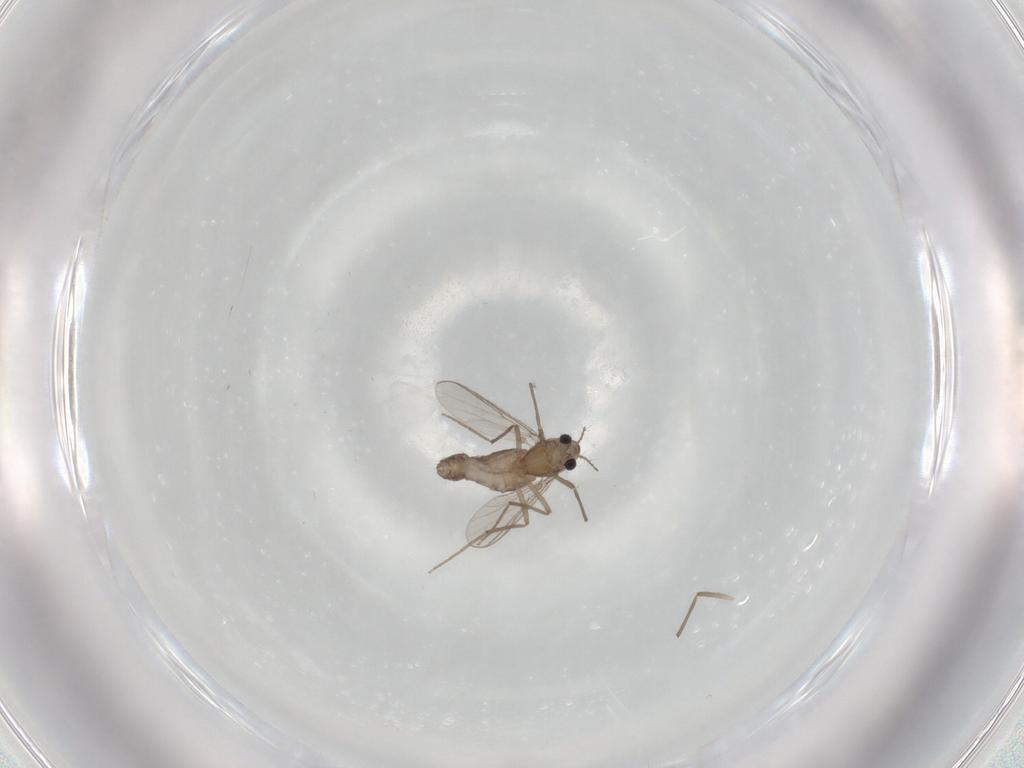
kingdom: Animalia
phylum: Arthropoda
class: Insecta
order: Diptera
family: Chironomidae
